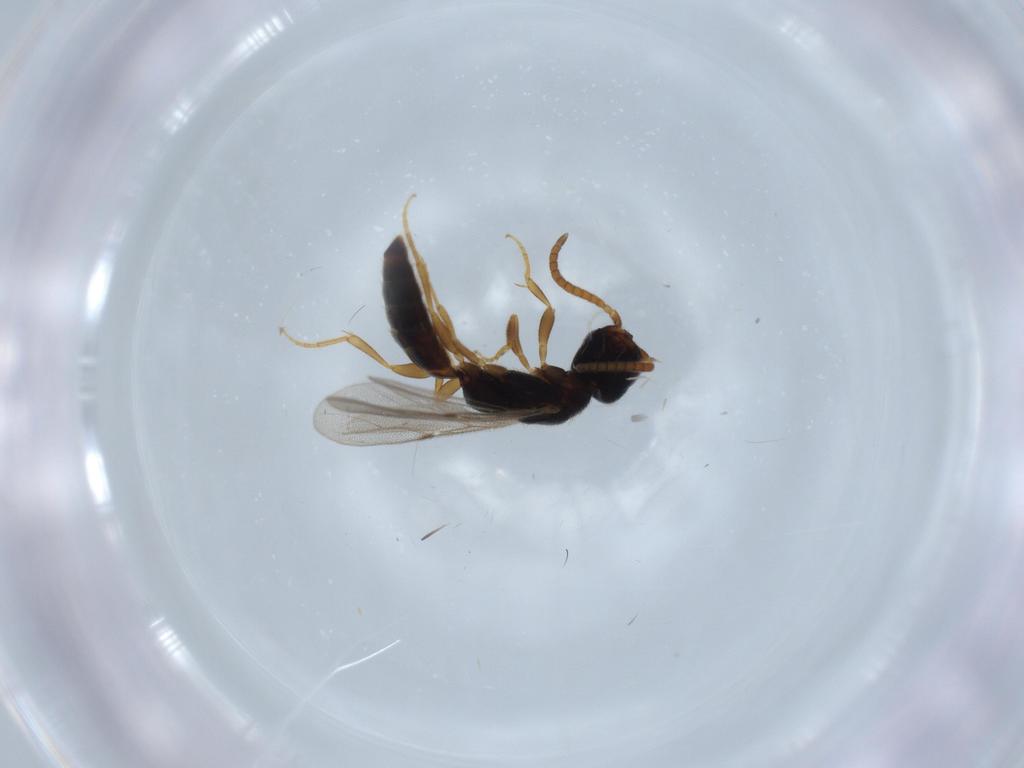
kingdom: Animalia
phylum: Arthropoda
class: Insecta
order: Hymenoptera
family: Bethylidae
